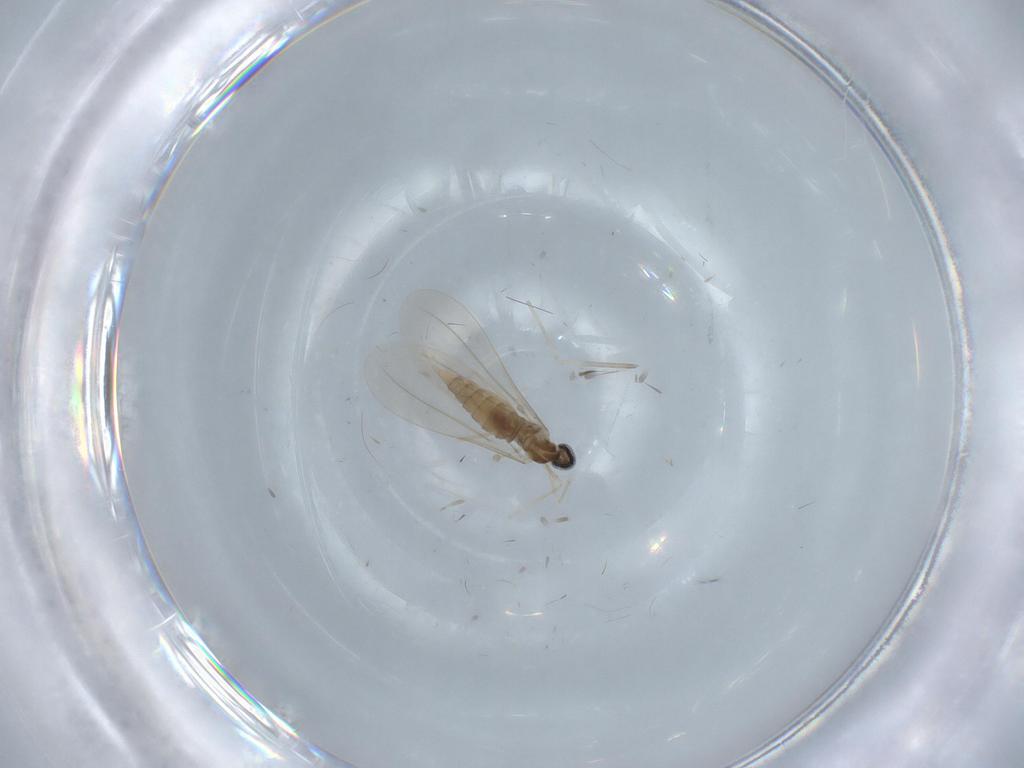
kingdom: Animalia
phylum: Arthropoda
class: Insecta
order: Diptera
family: Cecidomyiidae
